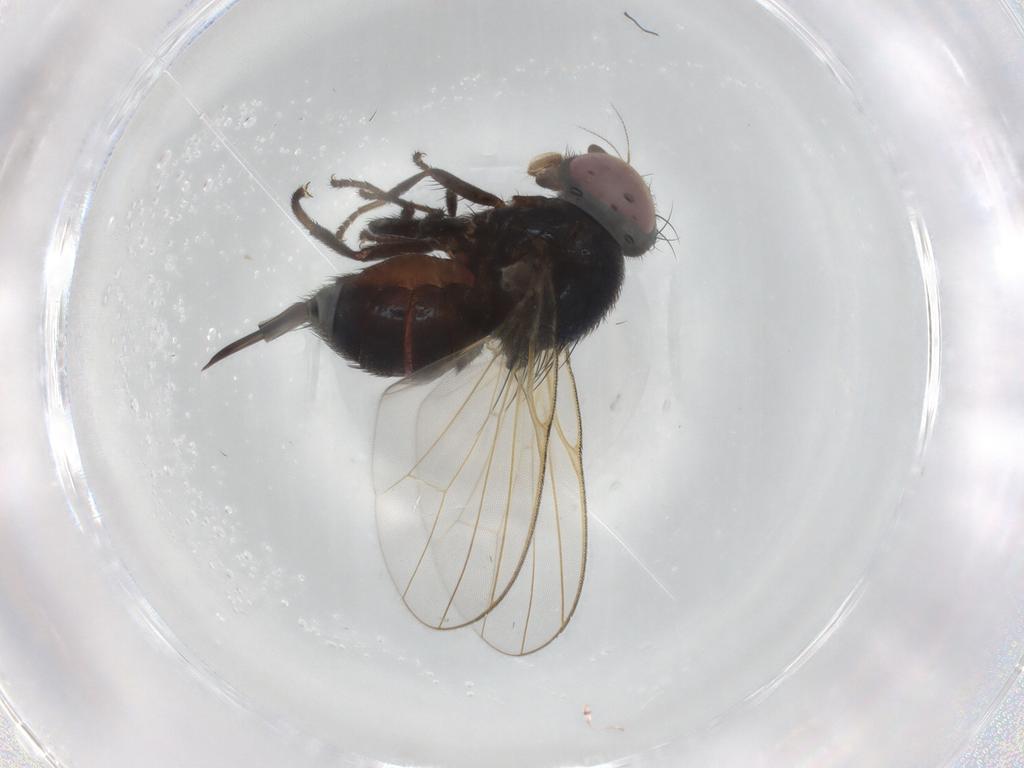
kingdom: Animalia
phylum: Arthropoda
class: Insecta
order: Diptera
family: Lonchaeidae
